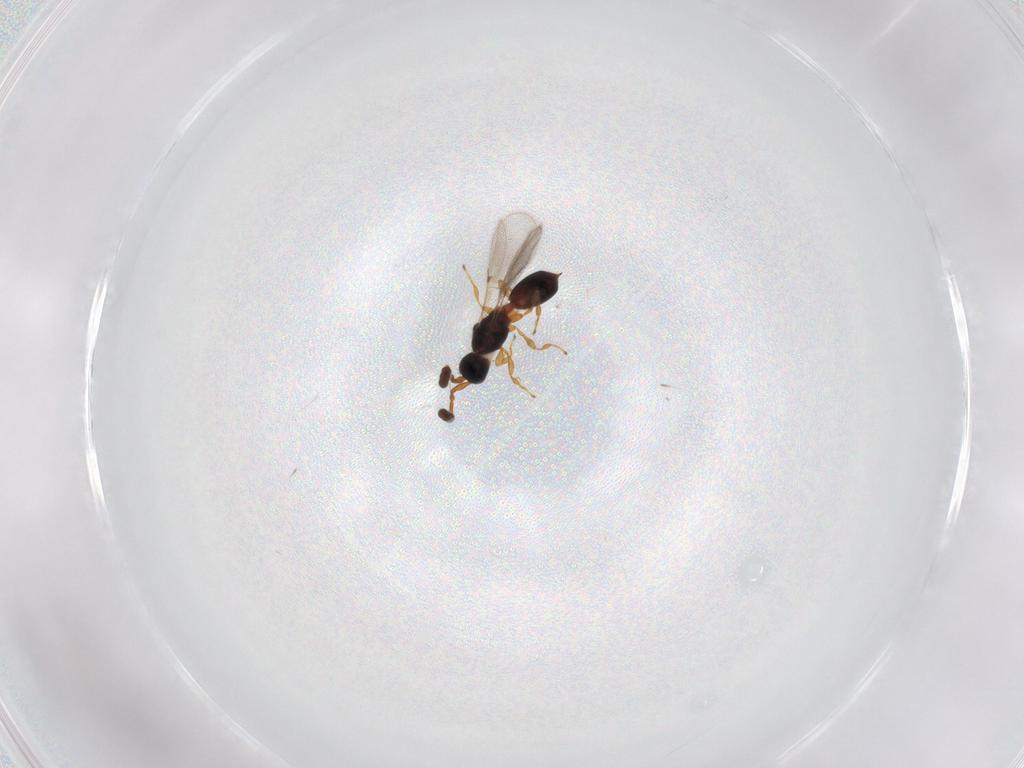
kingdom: Animalia
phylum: Arthropoda
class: Insecta
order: Hymenoptera
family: Diapriidae
